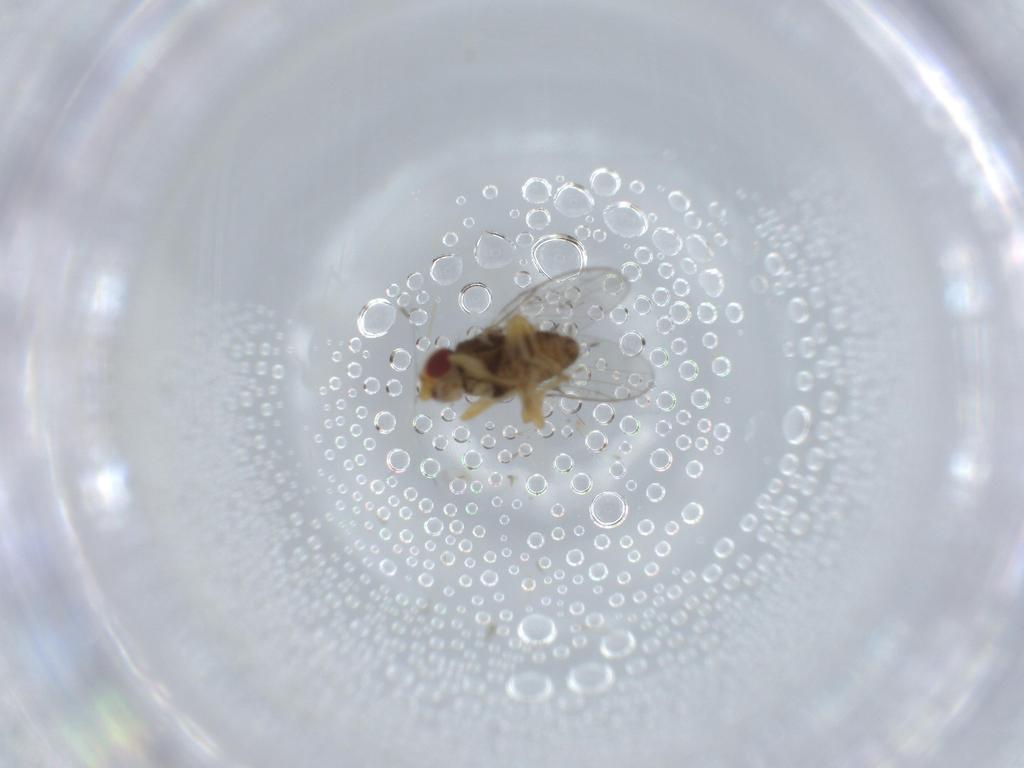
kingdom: Animalia
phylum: Arthropoda
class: Insecta
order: Diptera
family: Chloropidae
